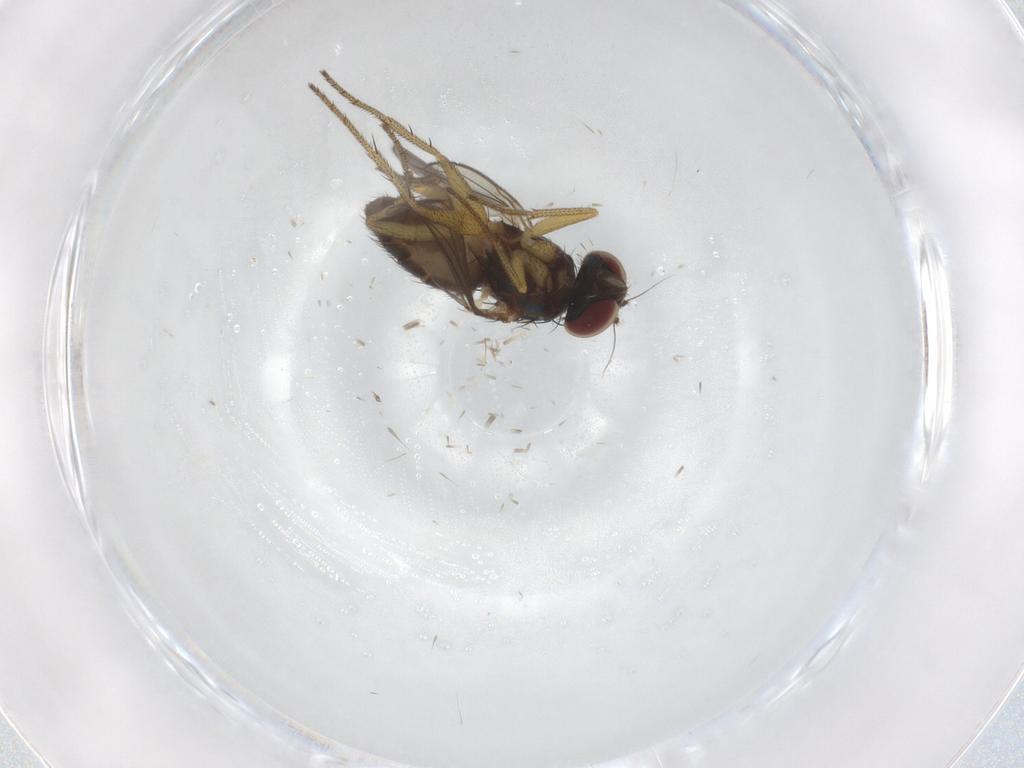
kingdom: Animalia
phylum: Arthropoda
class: Insecta
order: Diptera
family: Dolichopodidae
